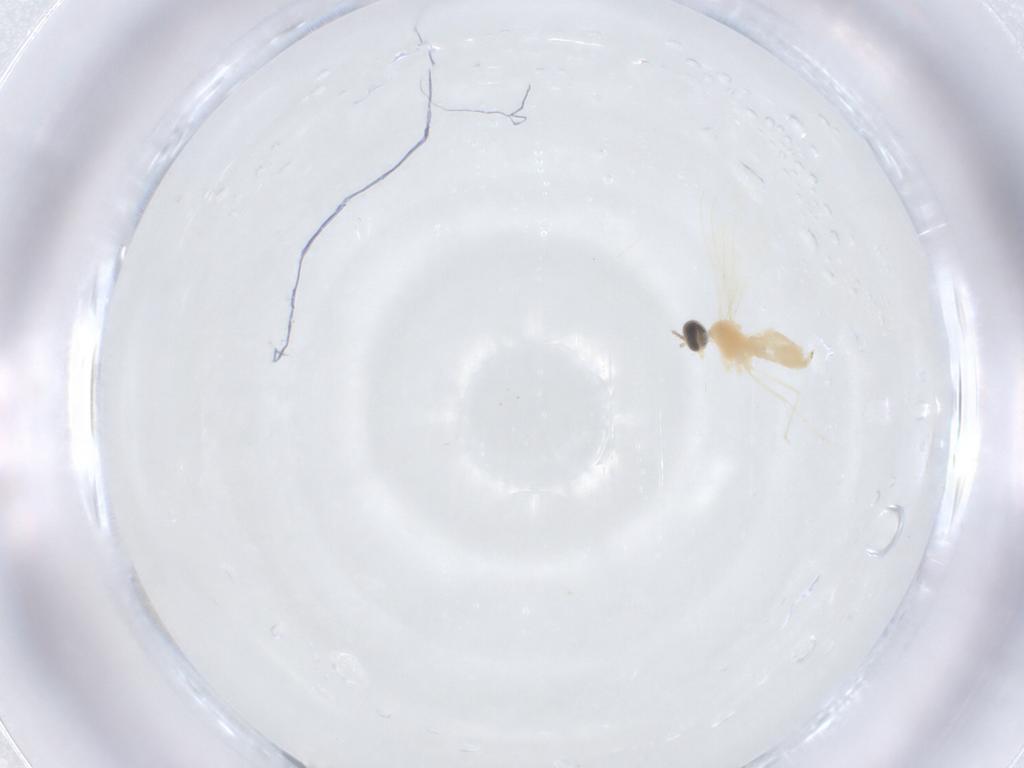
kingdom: Animalia
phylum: Arthropoda
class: Insecta
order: Diptera
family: Cecidomyiidae
